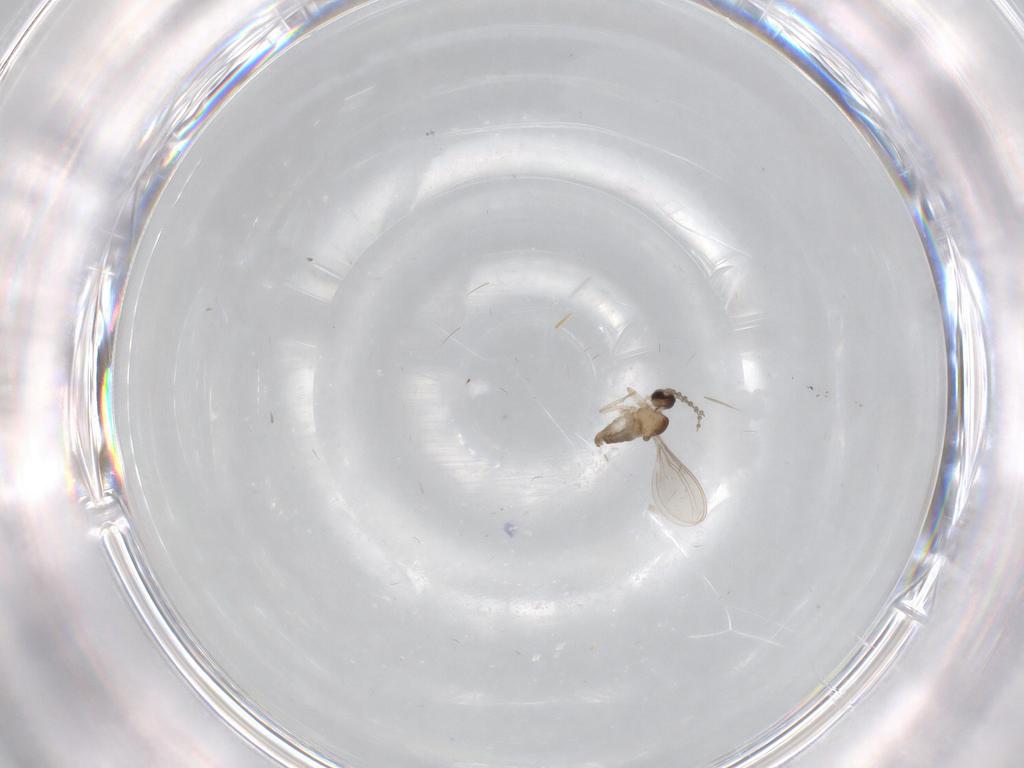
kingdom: Animalia
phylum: Arthropoda
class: Insecta
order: Diptera
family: Cecidomyiidae
